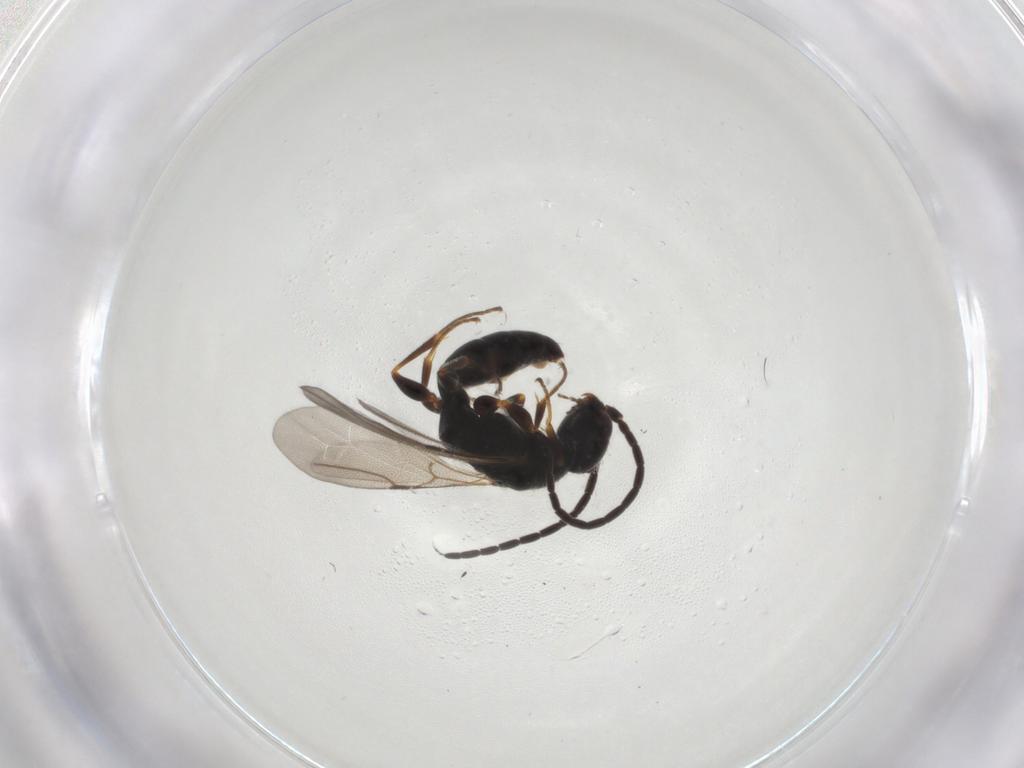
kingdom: Animalia
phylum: Arthropoda
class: Insecta
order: Hymenoptera
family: Bethylidae
